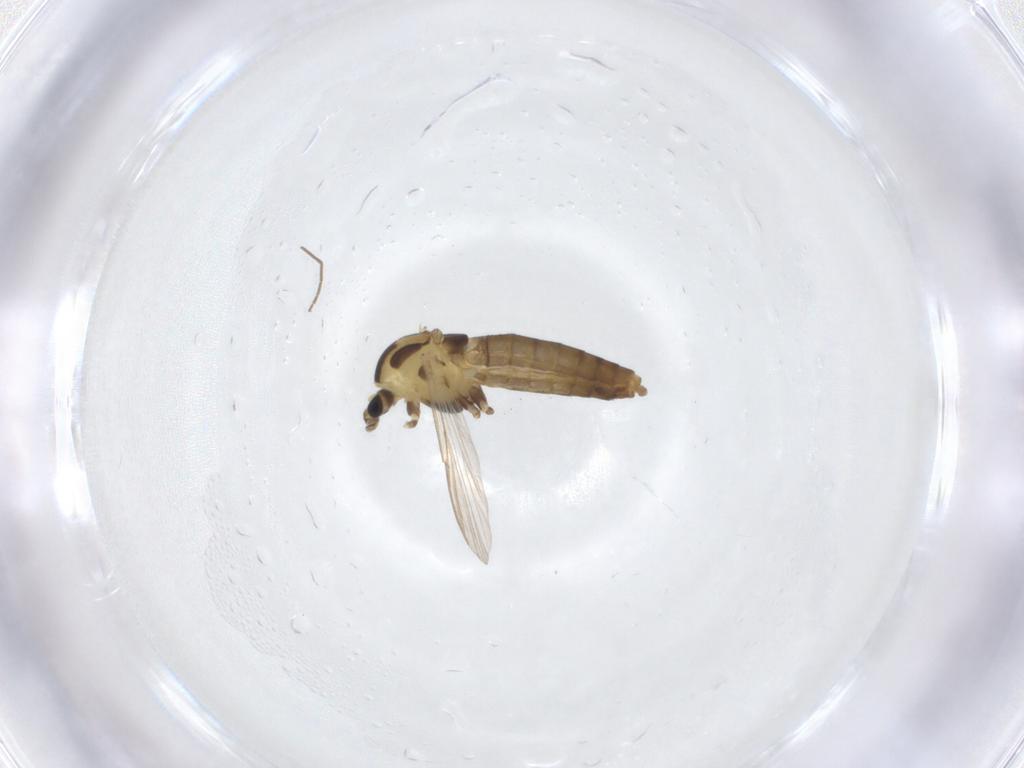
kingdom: Animalia
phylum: Arthropoda
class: Insecta
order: Diptera
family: Chironomidae
